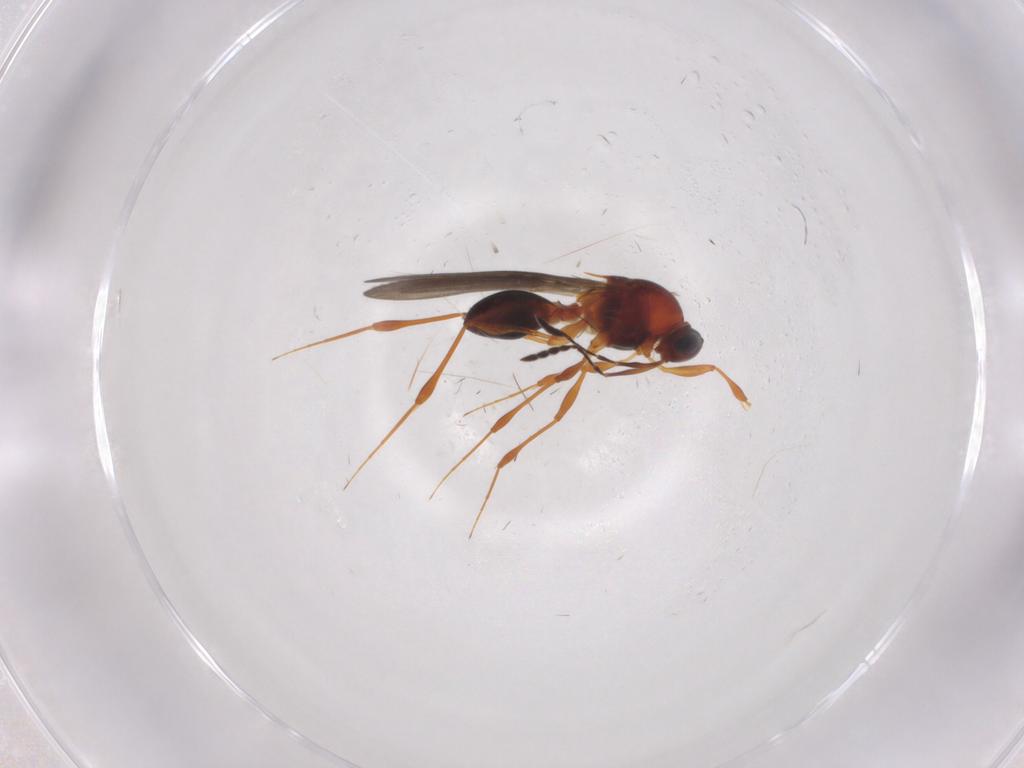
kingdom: Animalia
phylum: Arthropoda
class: Insecta
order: Hymenoptera
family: Platygastridae
